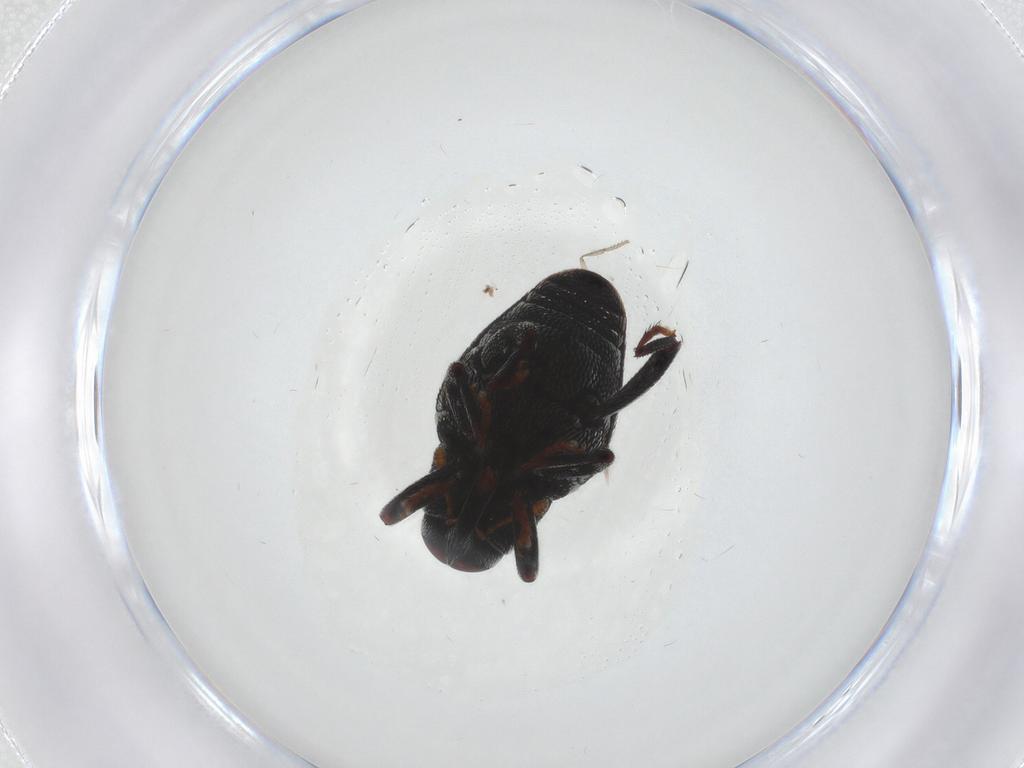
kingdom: Animalia
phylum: Arthropoda
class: Insecta
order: Coleoptera
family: Curculionidae
